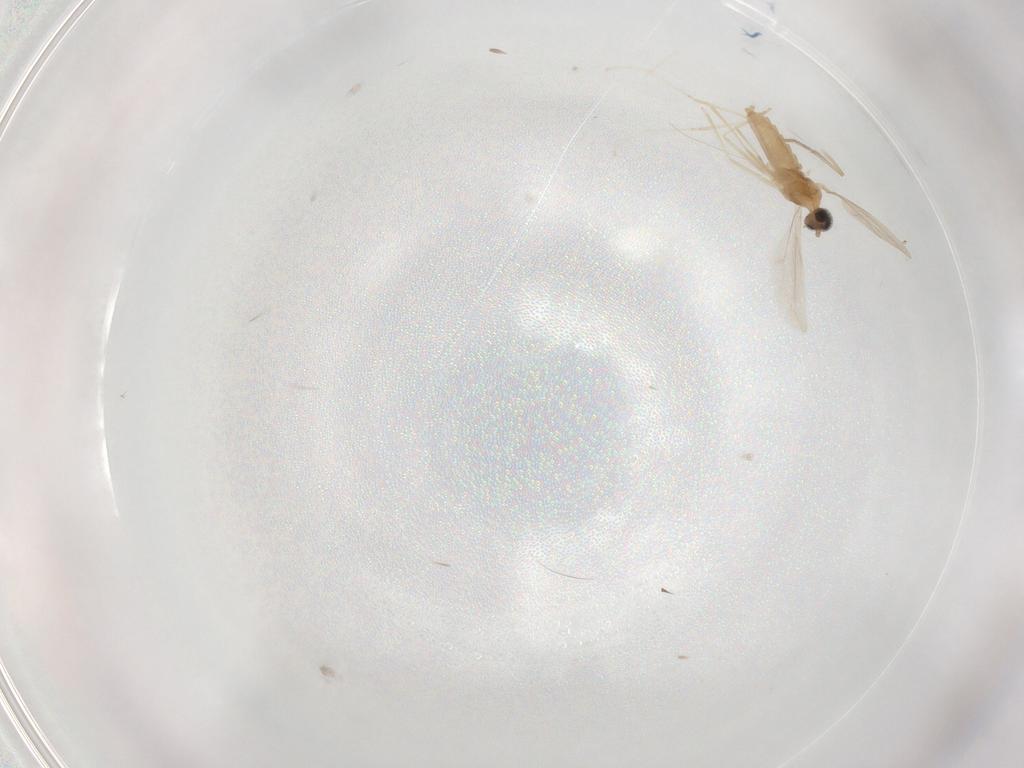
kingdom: Animalia
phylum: Arthropoda
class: Insecta
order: Diptera
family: Cecidomyiidae
